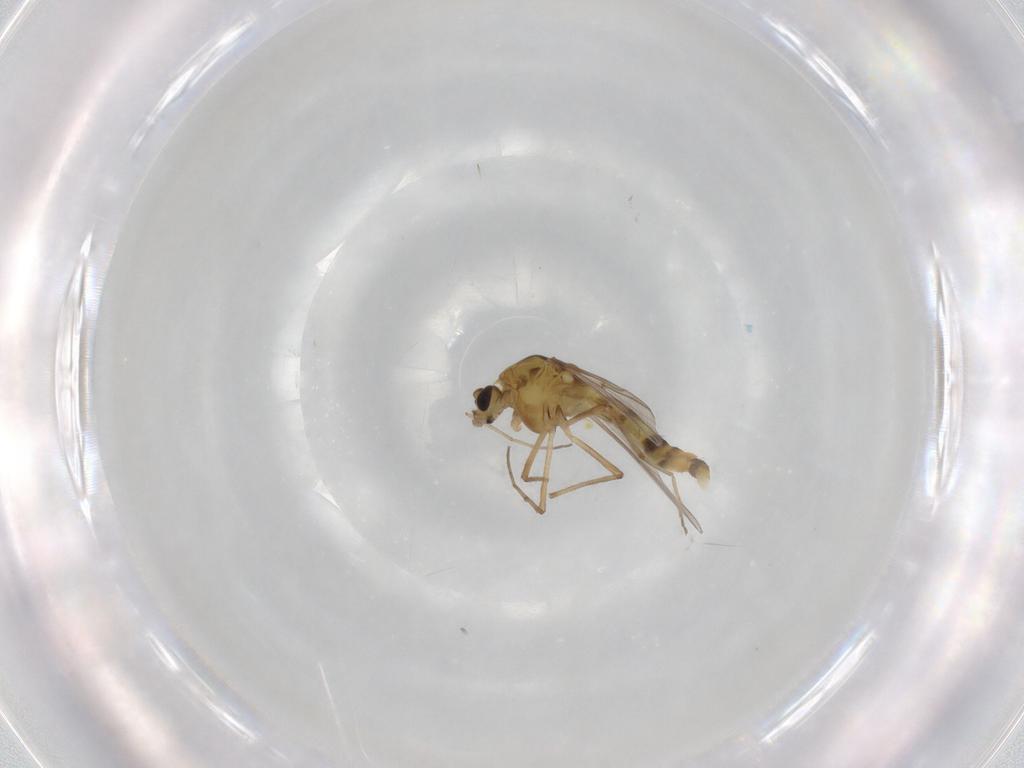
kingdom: Animalia
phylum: Arthropoda
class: Insecta
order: Diptera
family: Chironomidae
